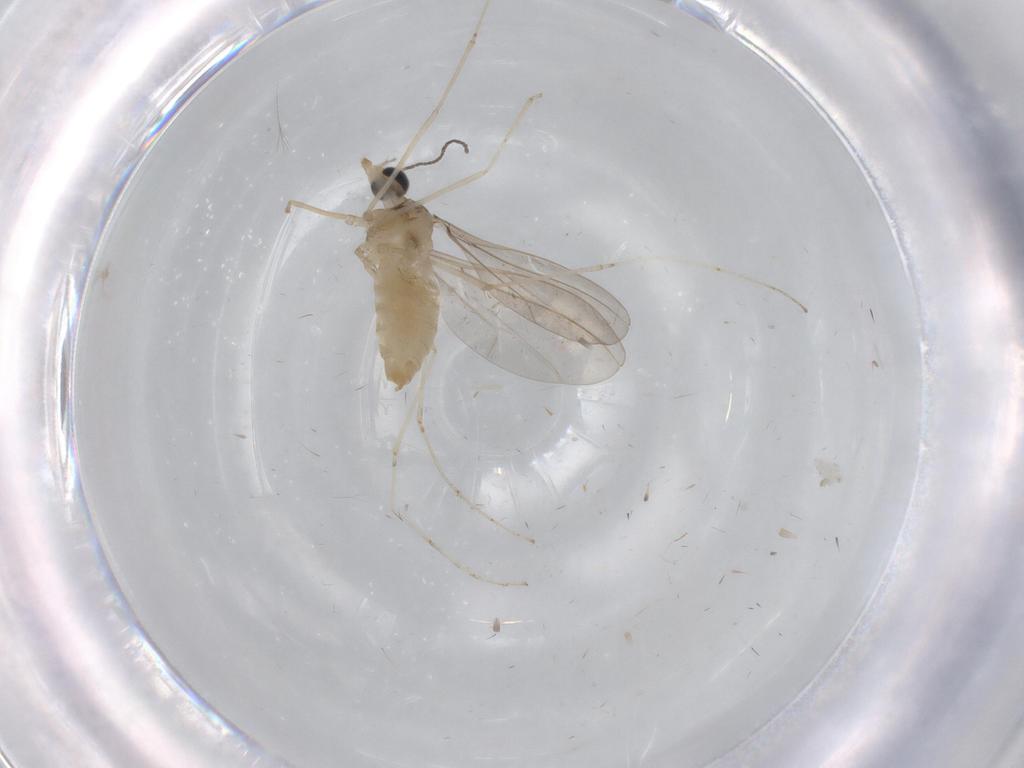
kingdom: Animalia
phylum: Arthropoda
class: Insecta
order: Diptera
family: Cecidomyiidae
